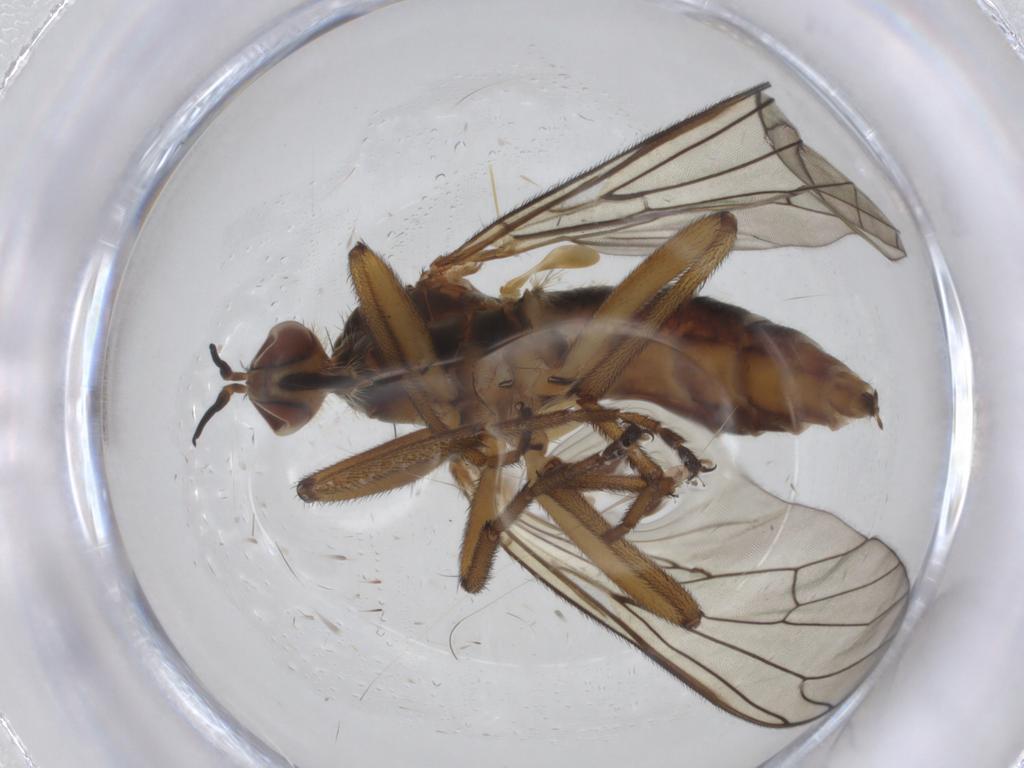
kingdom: Animalia
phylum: Arthropoda
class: Insecta
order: Diptera
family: Empididae
